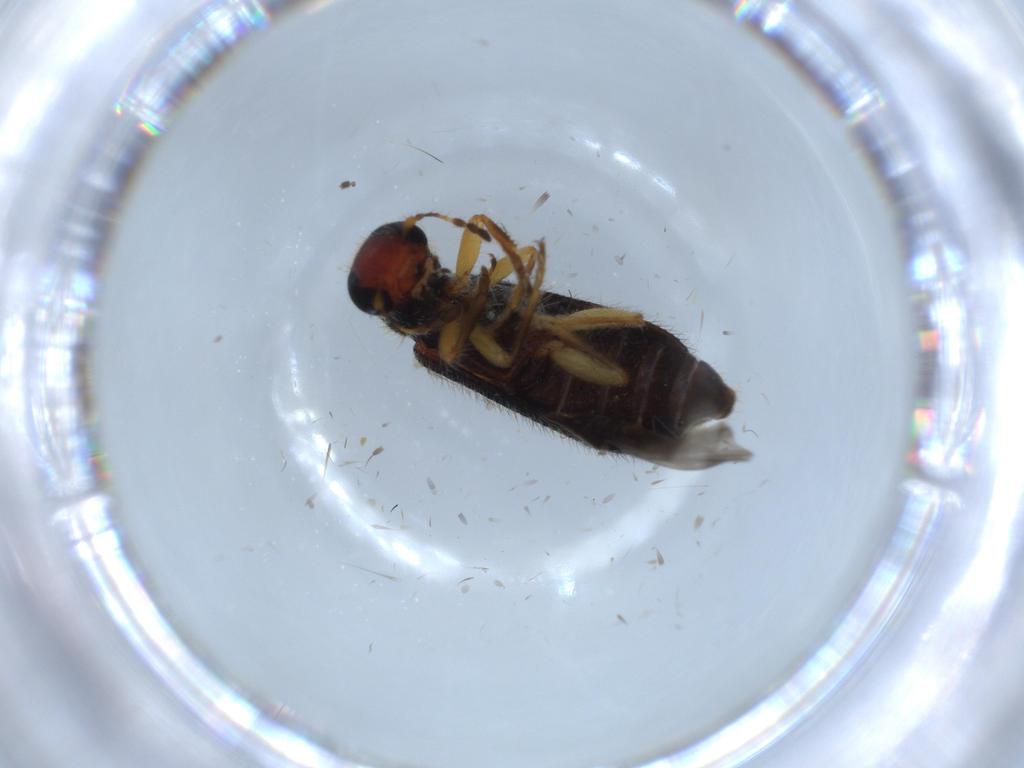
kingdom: Animalia
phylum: Arthropoda
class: Insecta
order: Coleoptera
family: Cleridae
